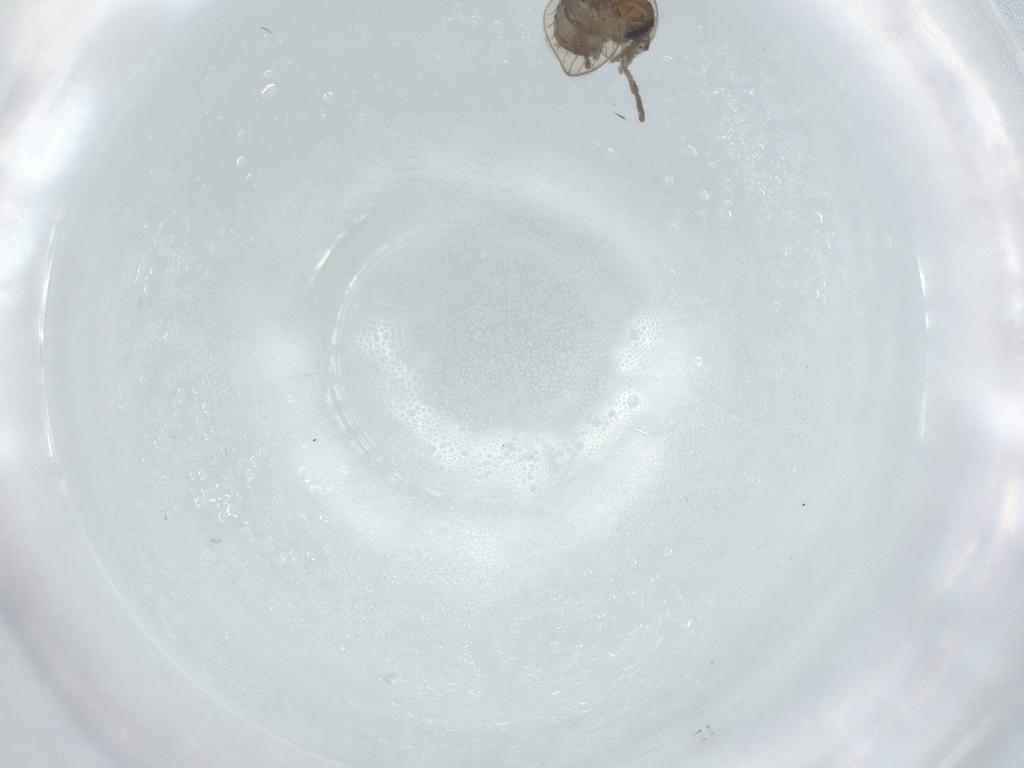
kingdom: Animalia
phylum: Arthropoda
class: Insecta
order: Diptera
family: Psychodidae
